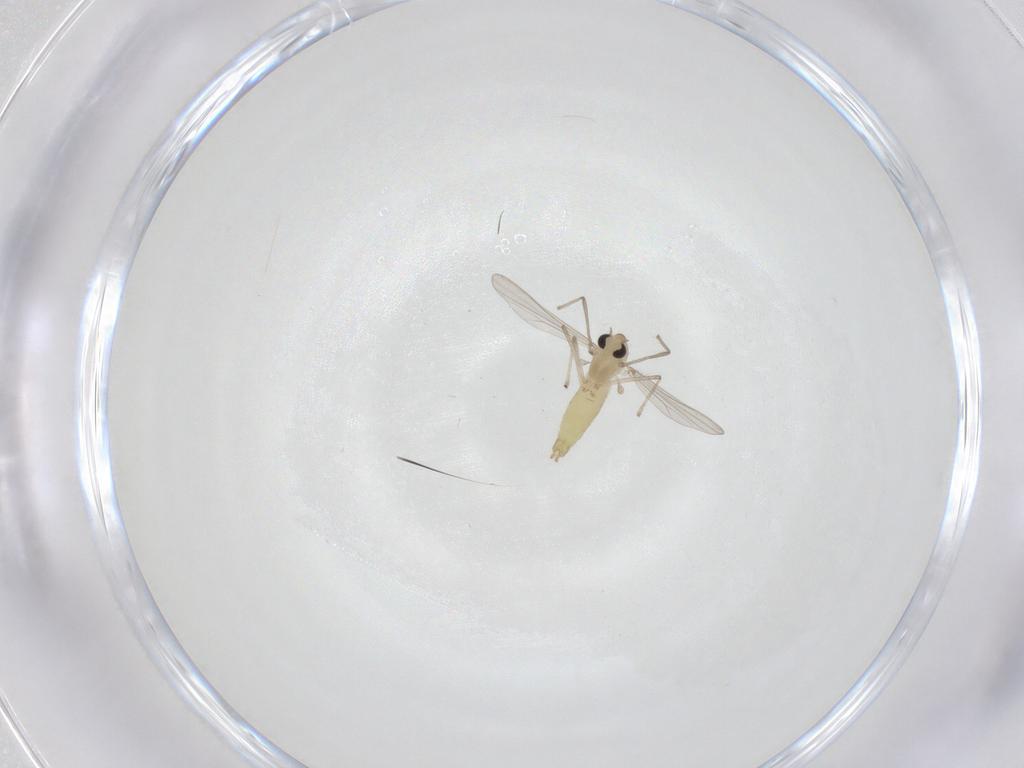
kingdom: Animalia
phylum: Arthropoda
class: Insecta
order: Diptera
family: Chironomidae
